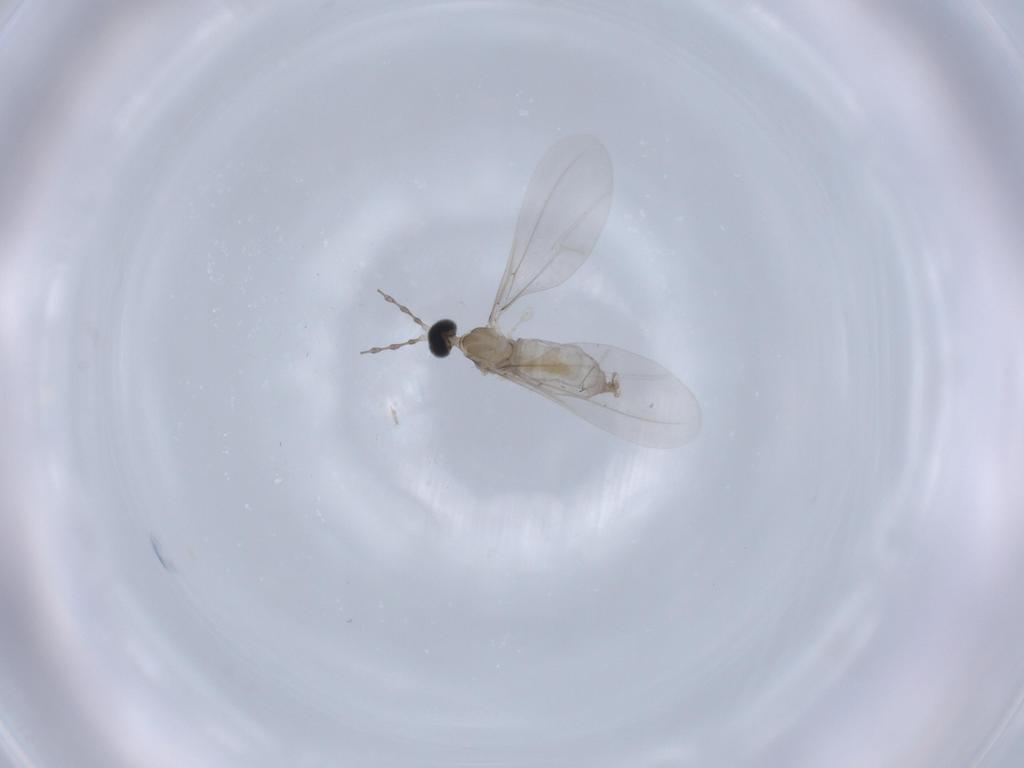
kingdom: Animalia
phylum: Arthropoda
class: Insecta
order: Diptera
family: Cecidomyiidae
